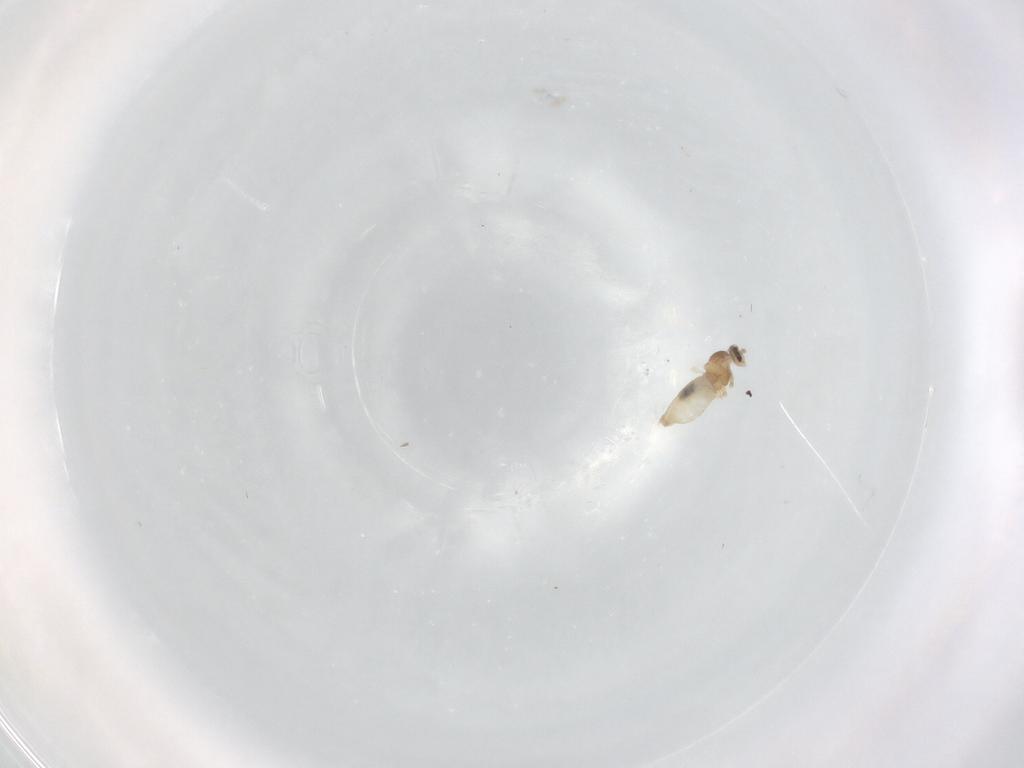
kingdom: Animalia
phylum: Arthropoda
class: Insecta
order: Diptera
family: Cecidomyiidae
